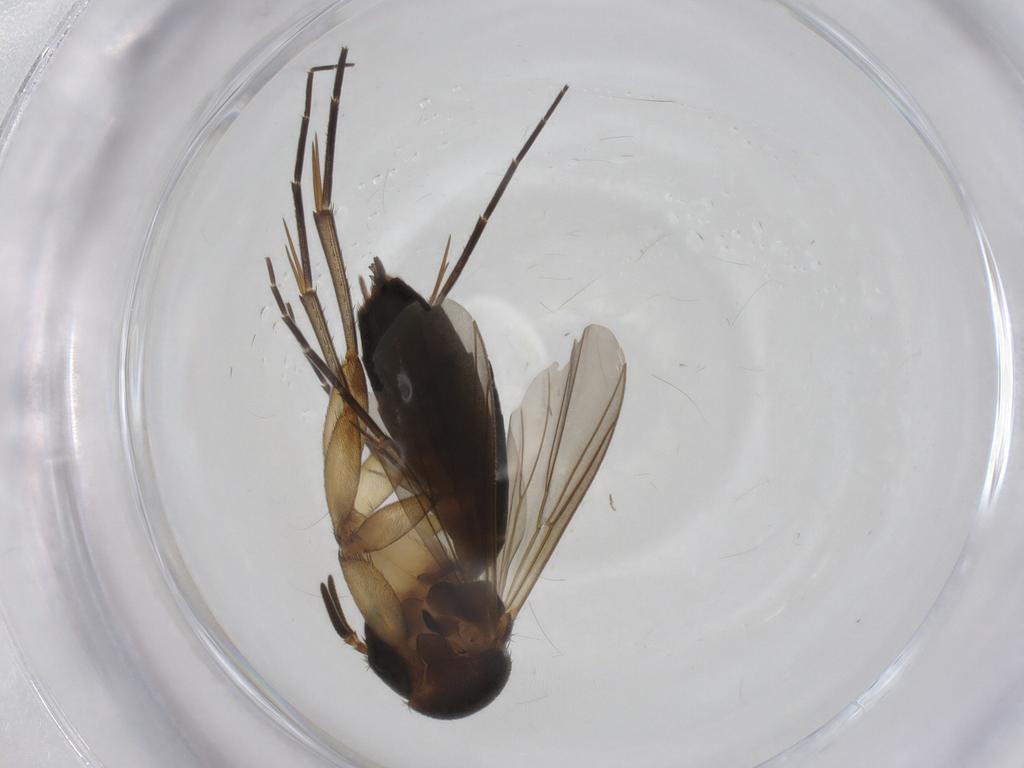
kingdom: Animalia
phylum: Arthropoda
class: Insecta
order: Diptera
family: Mycetophilidae
